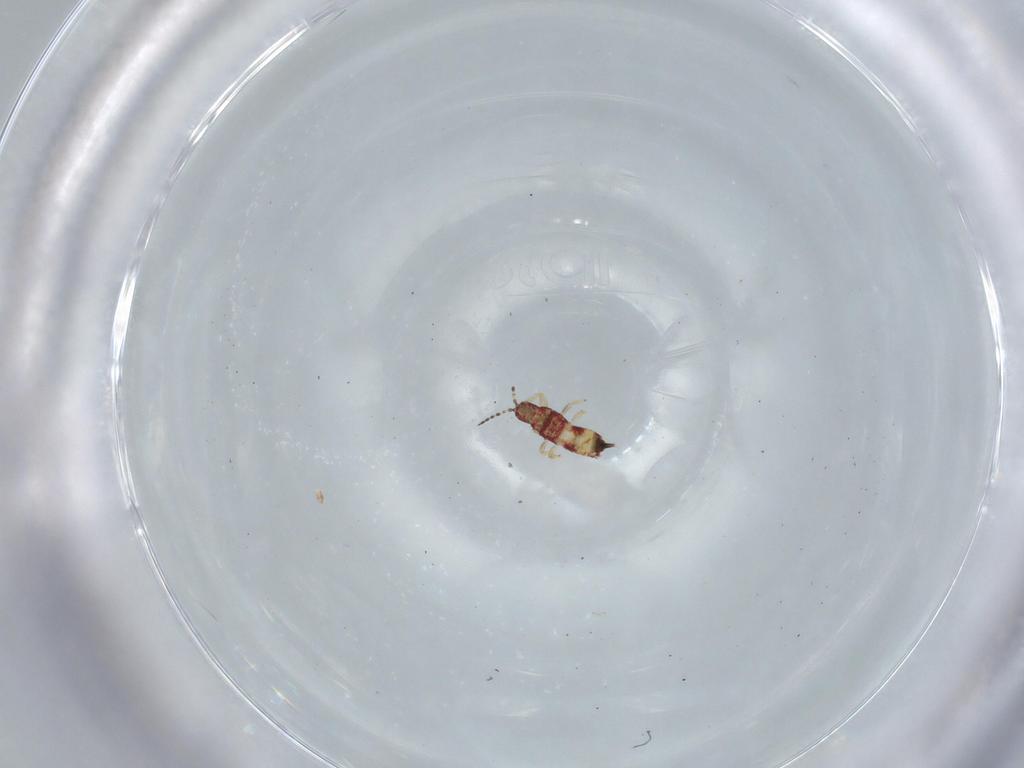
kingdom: Animalia
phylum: Arthropoda
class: Insecta
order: Thysanoptera
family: Phlaeothripidae
